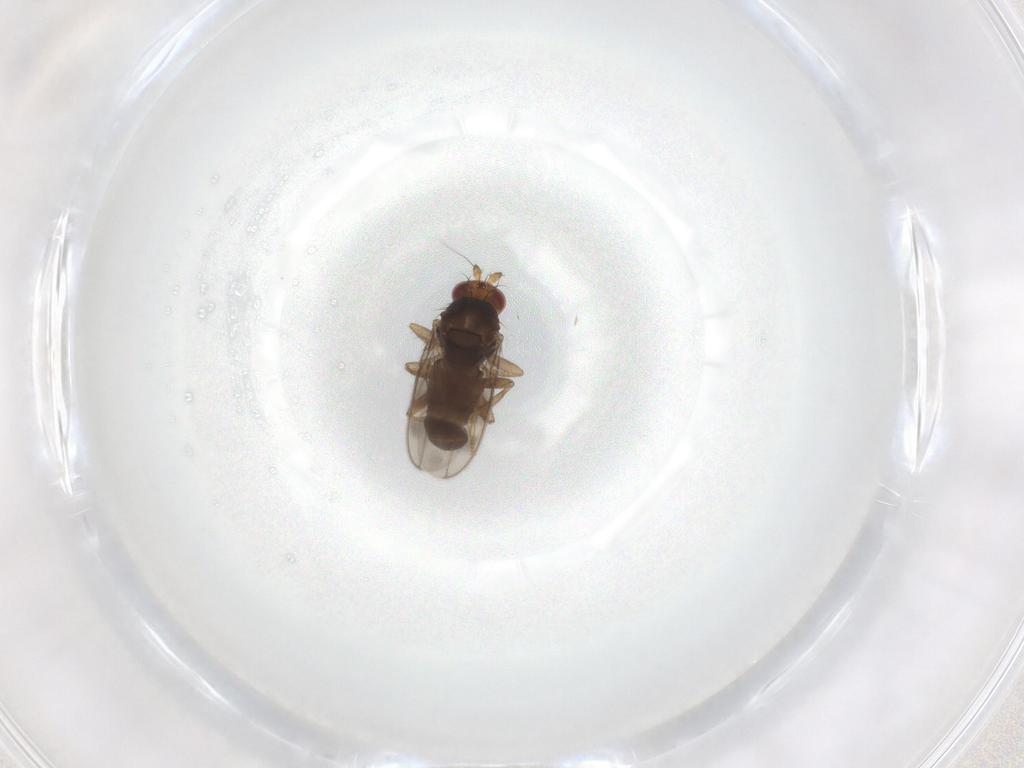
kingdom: Animalia
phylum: Arthropoda
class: Insecta
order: Diptera
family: Sphaeroceridae
